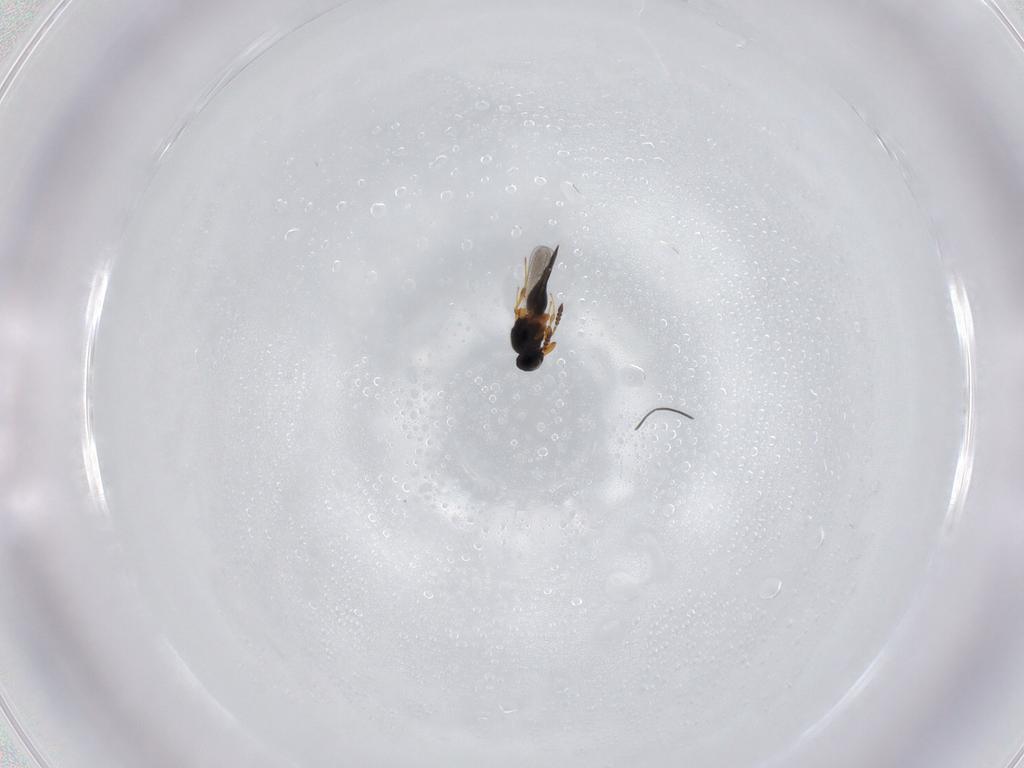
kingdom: Animalia
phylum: Arthropoda
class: Insecta
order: Hymenoptera
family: Platygastridae
